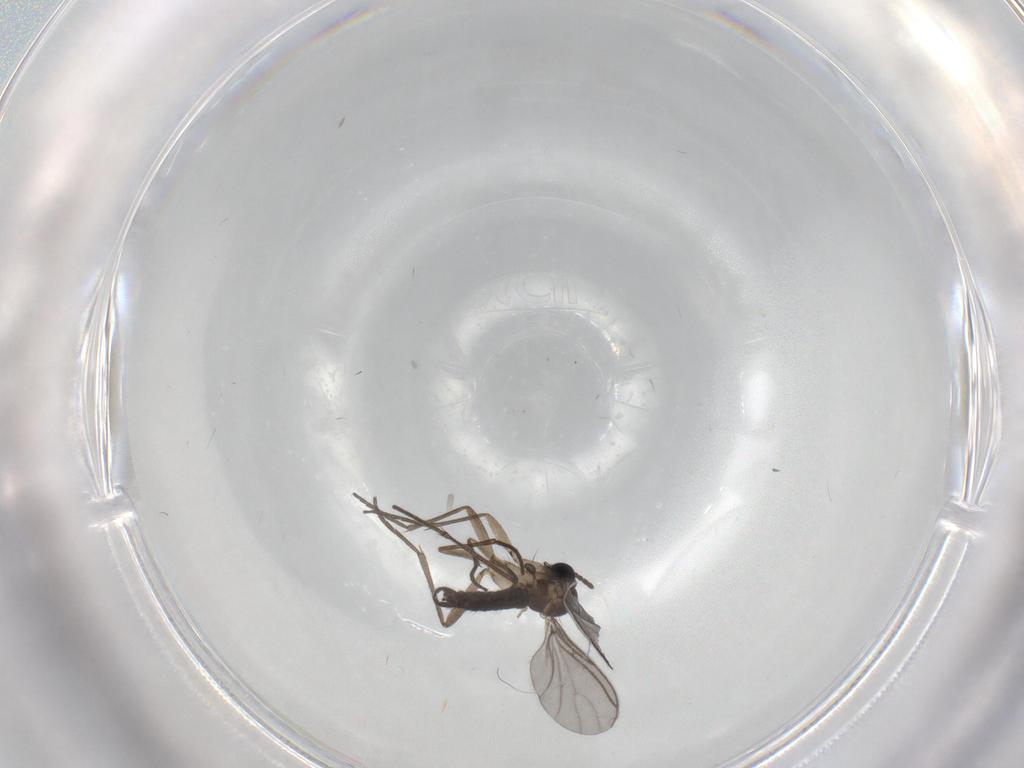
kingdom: Animalia
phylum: Arthropoda
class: Insecta
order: Diptera
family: Sciaridae
